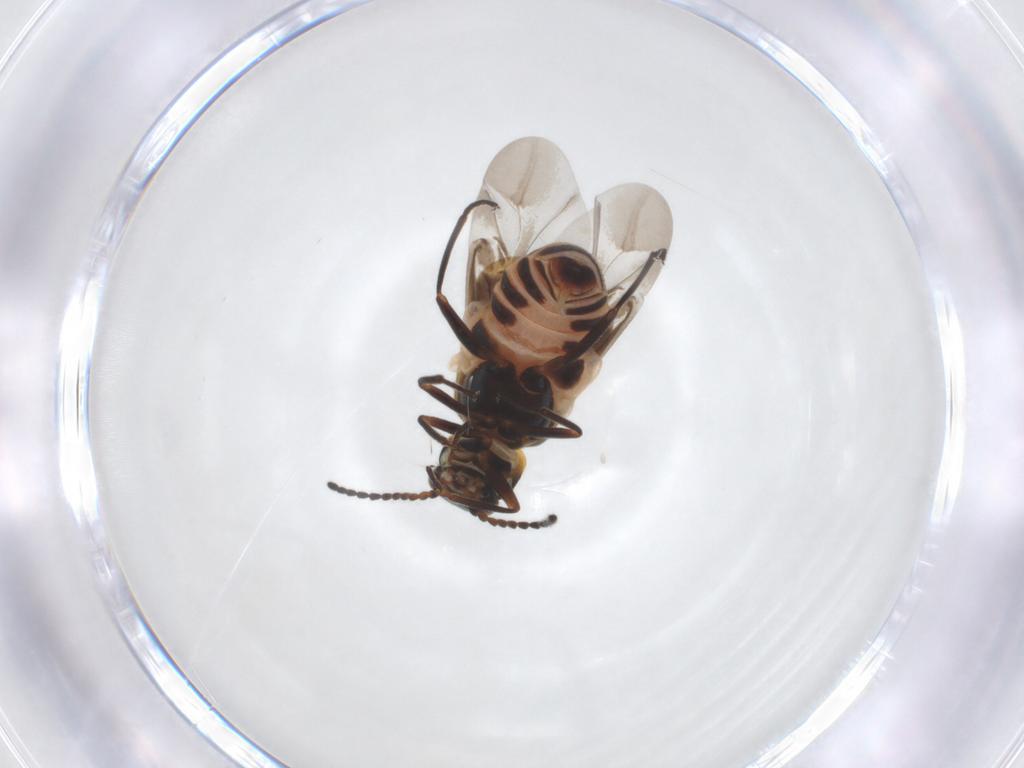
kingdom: Animalia
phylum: Arthropoda
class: Insecta
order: Coleoptera
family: Melyridae
